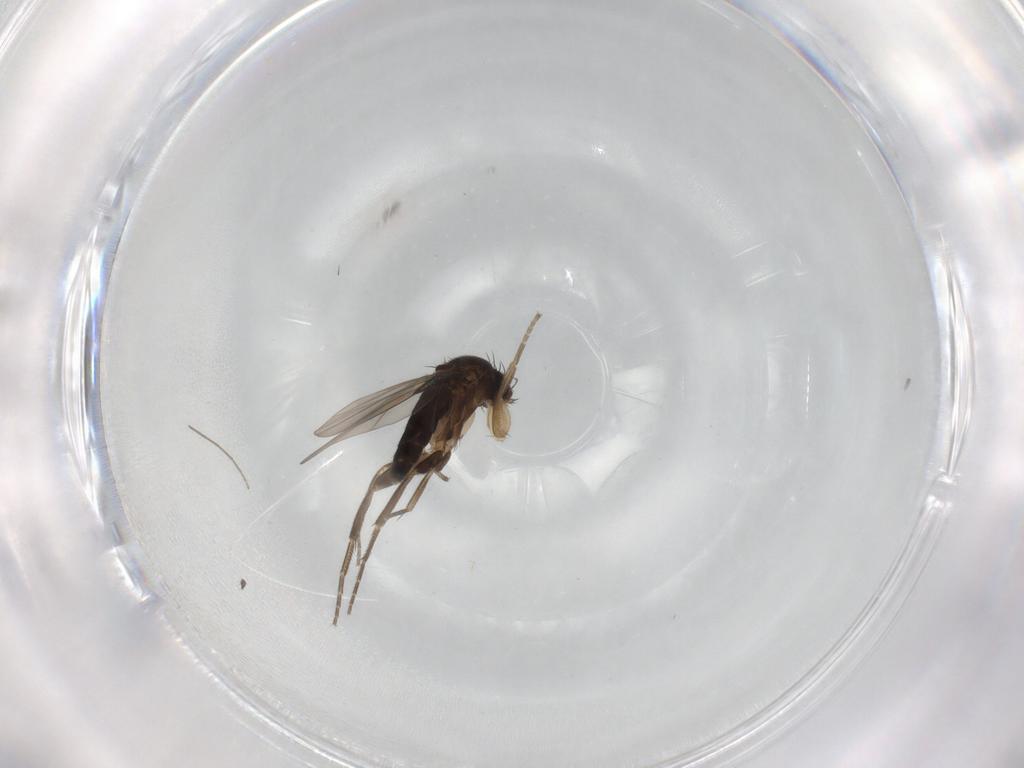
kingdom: Animalia
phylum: Arthropoda
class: Insecta
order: Diptera
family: Phoridae
